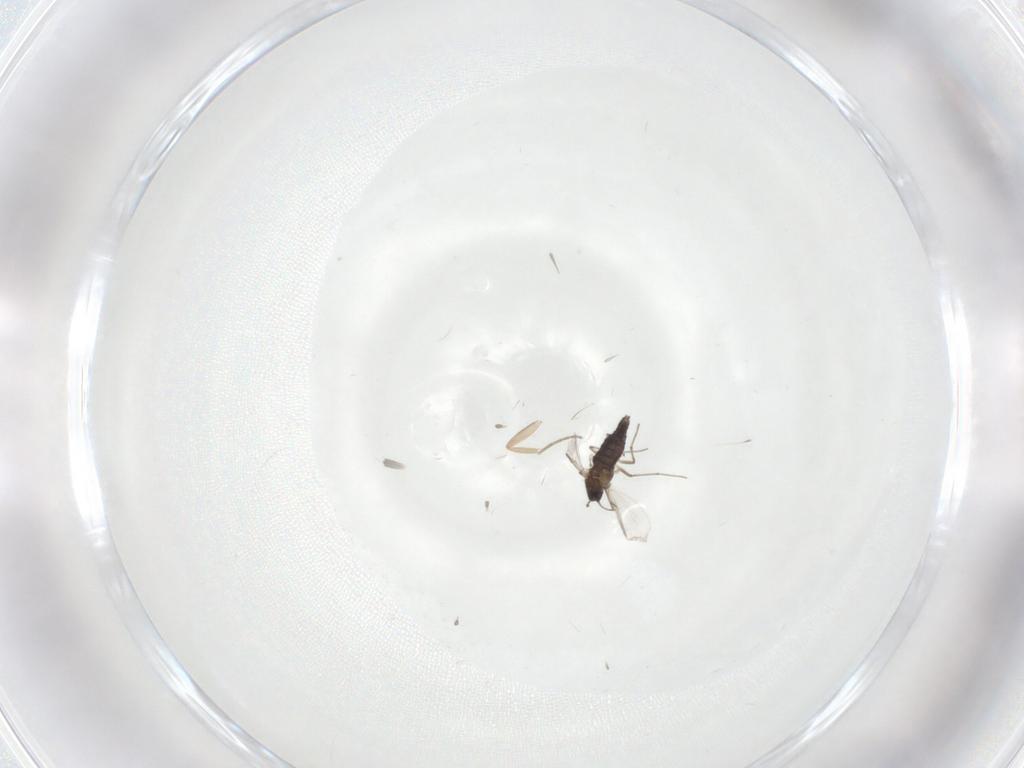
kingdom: Animalia
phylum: Arthropoda
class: Insecta
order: Diptera
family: Chironomidae
